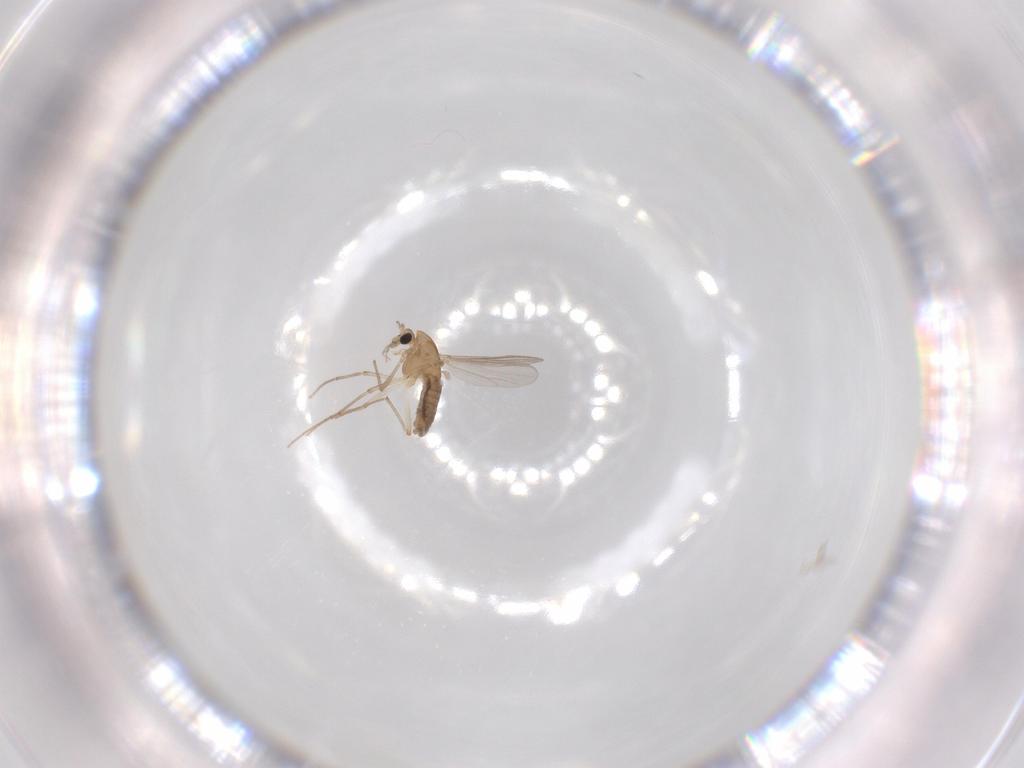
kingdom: Animalia
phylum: Arthropoda
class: Insecta
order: Diptera
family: Chironomidae
